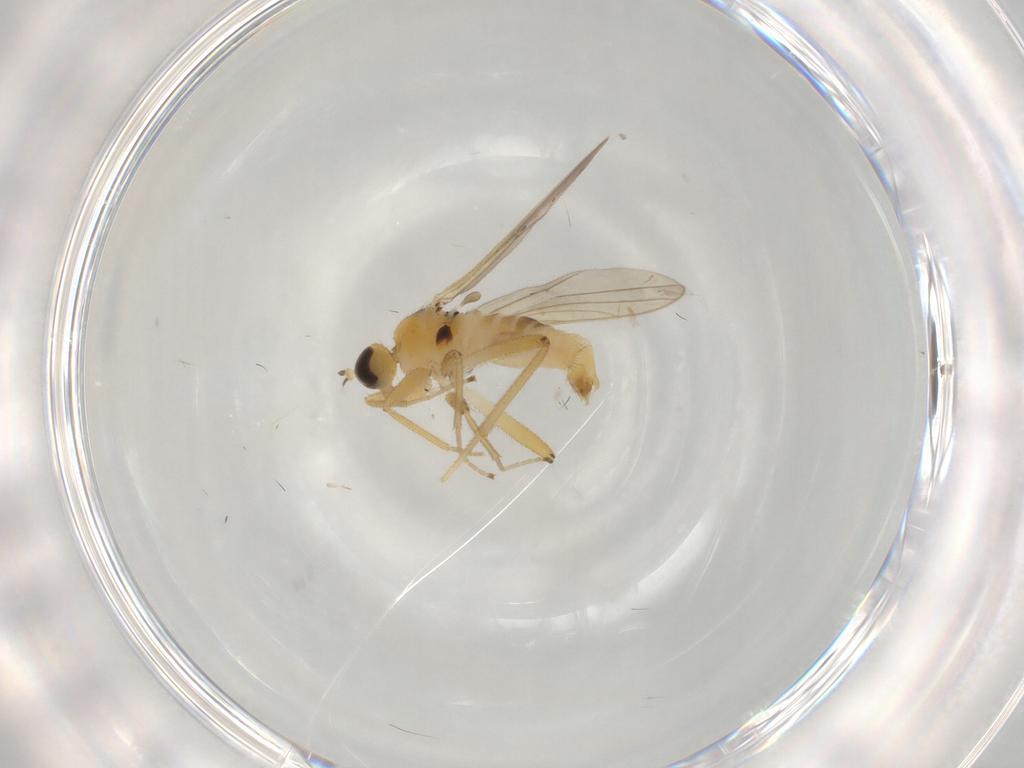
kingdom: Animalia
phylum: Arthropoda
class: Insecta
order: Diptera
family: Hybotidae
